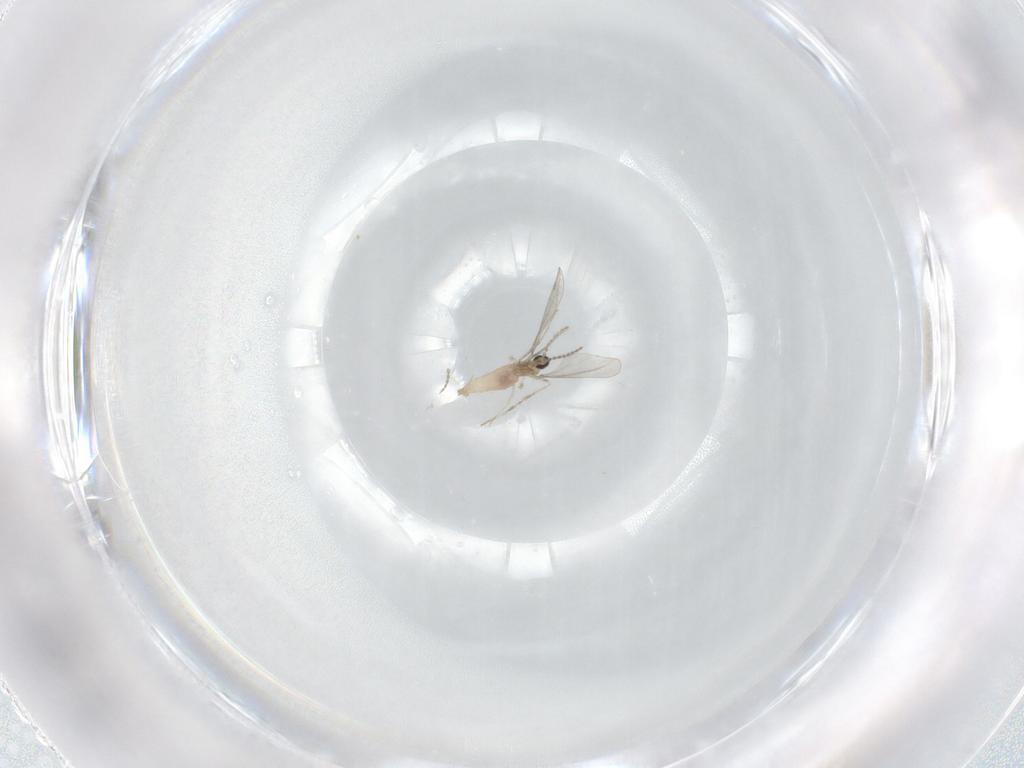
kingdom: Animalia
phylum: Arthropoda
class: Insecta
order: Diptera
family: Cecidomyiidae
